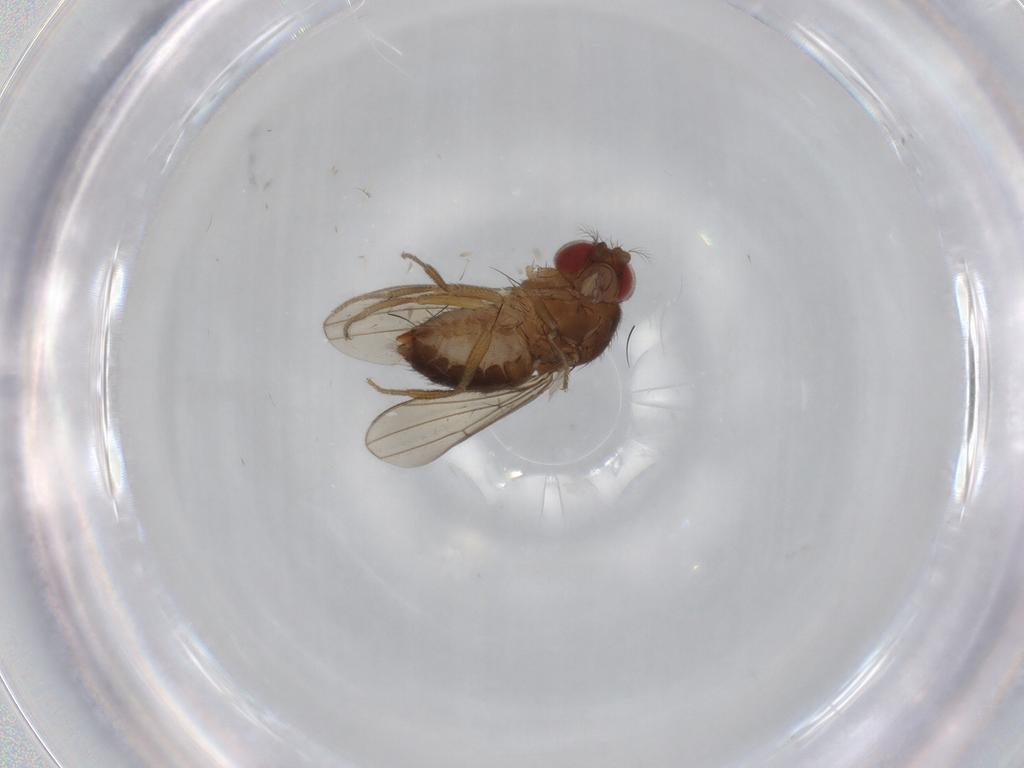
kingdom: Animalia
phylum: Arthropoda
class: Insecta
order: Diptera
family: Drosophilidae
